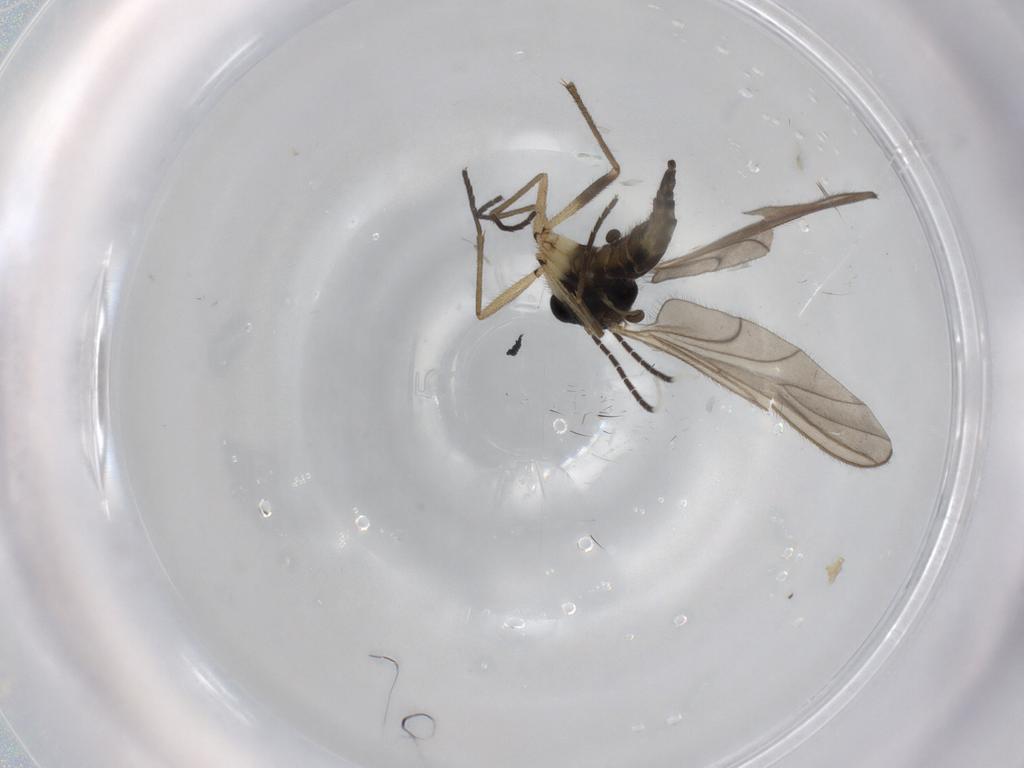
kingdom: Animalia
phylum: Arthropoda
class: Insecta
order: Diptera
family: Sciaridae
